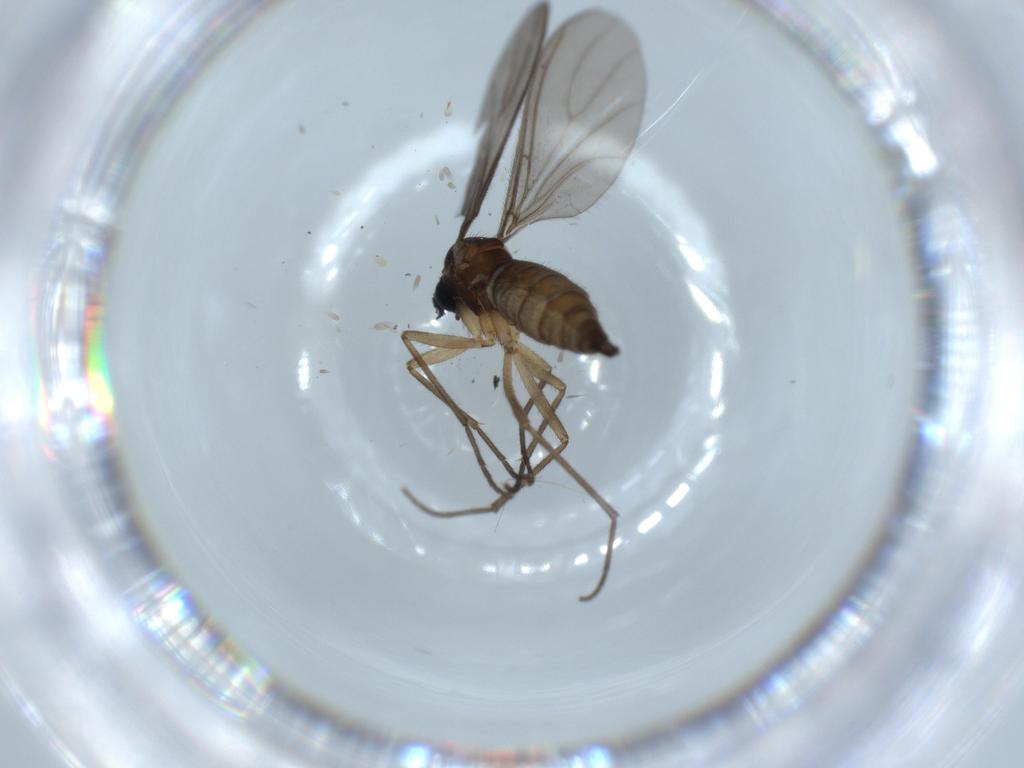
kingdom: Animalia
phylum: Arthropoda
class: Insecta
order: Diptera
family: Sciaridae
